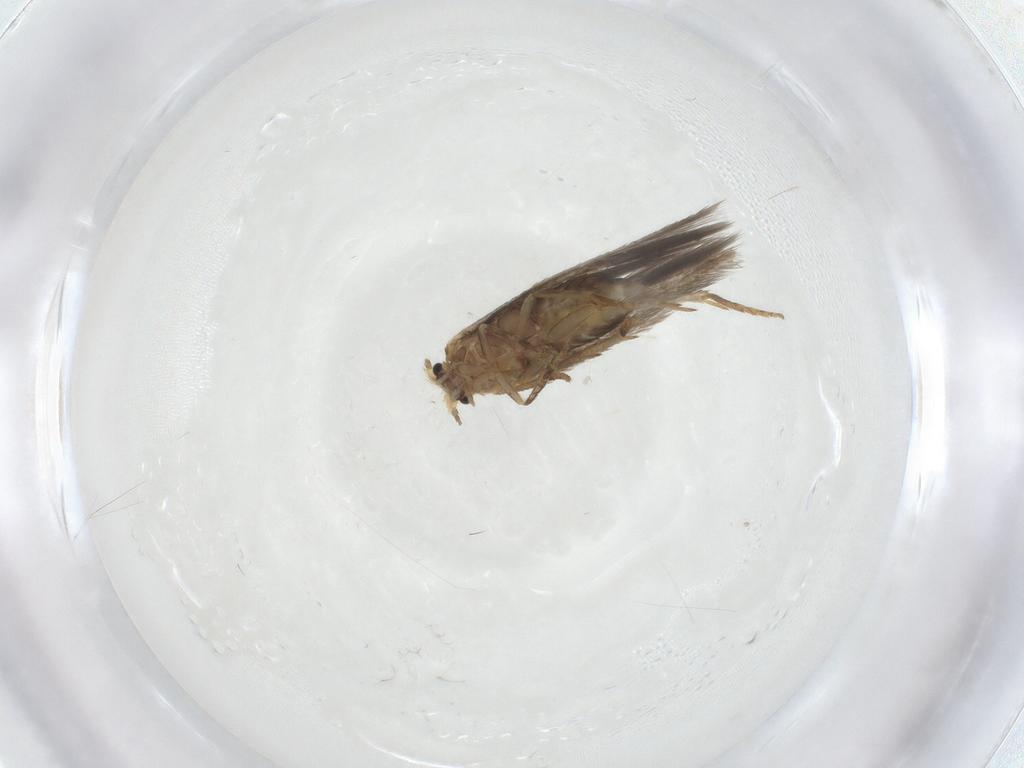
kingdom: Animalia
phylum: Arthropoda
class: Insecta
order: Lepidoptera
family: Nepticulidae
